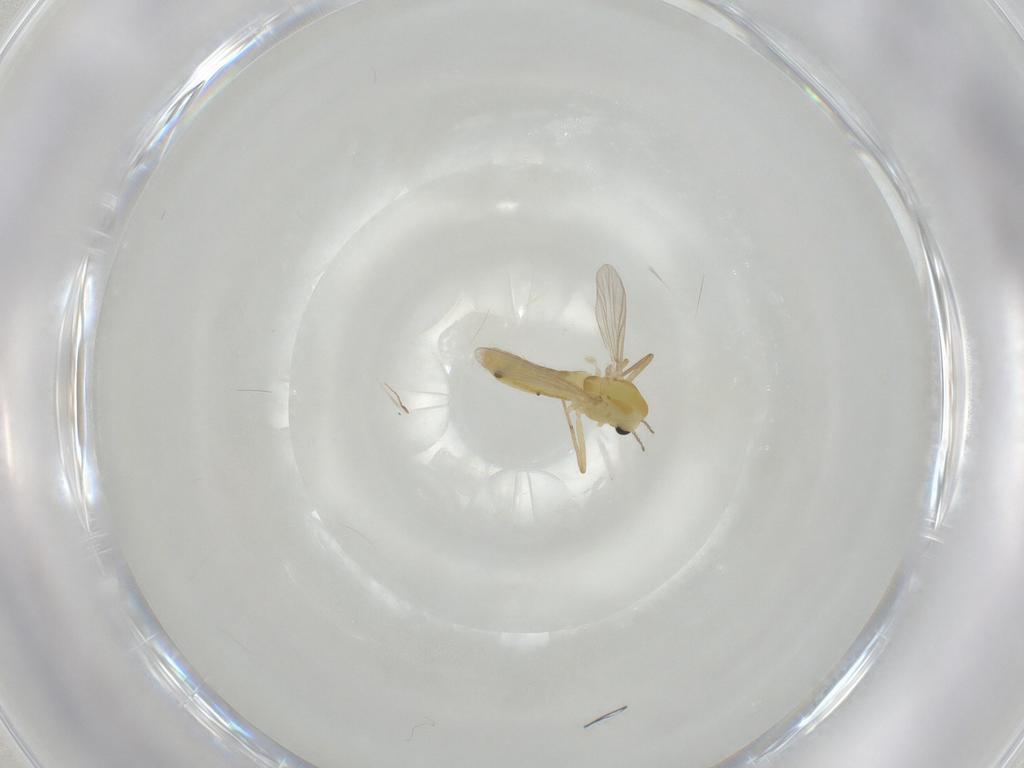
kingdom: Animalia
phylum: Arthropoda
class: Insecta
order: Diptera
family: Chironomidae
